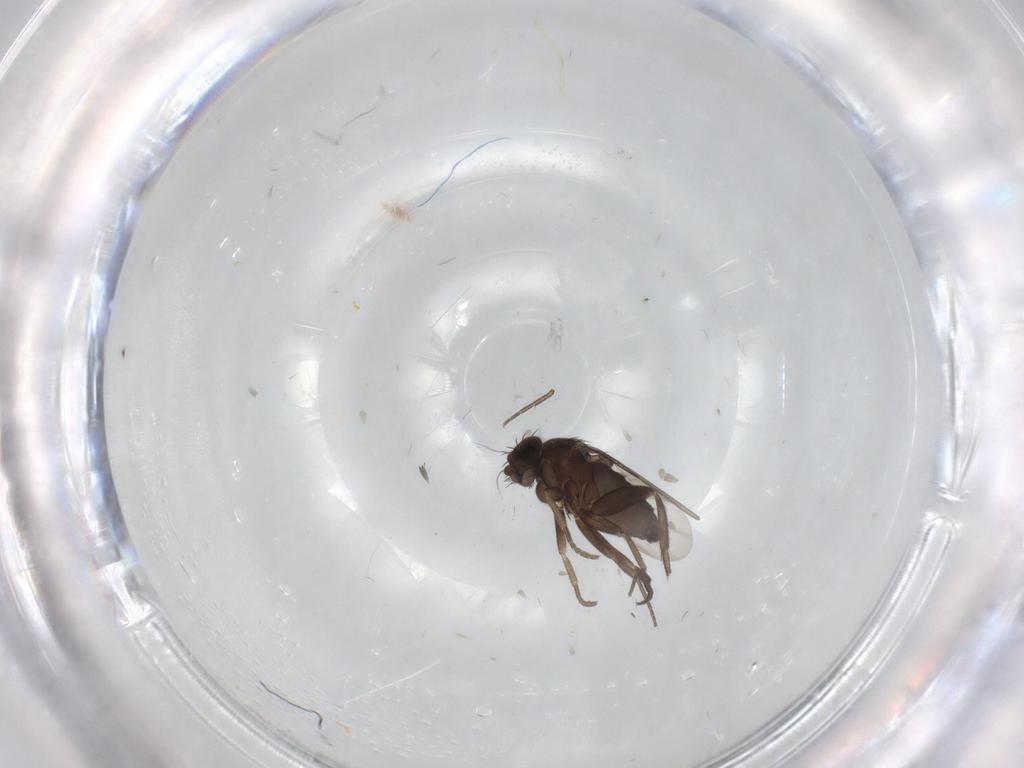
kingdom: Animalia
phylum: Arthropoda
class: Insecta
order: Diptera
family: Phoridae
